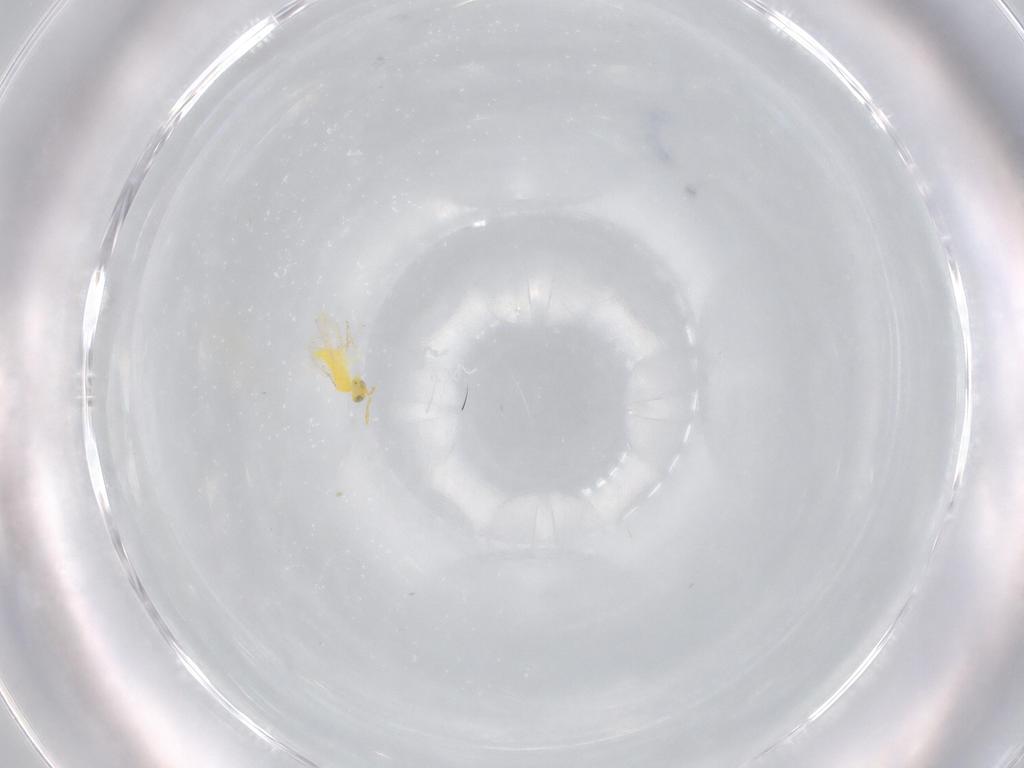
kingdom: Animalia
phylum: Arthropoda
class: Insecta
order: Hymenoptera
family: Aphelinidae
